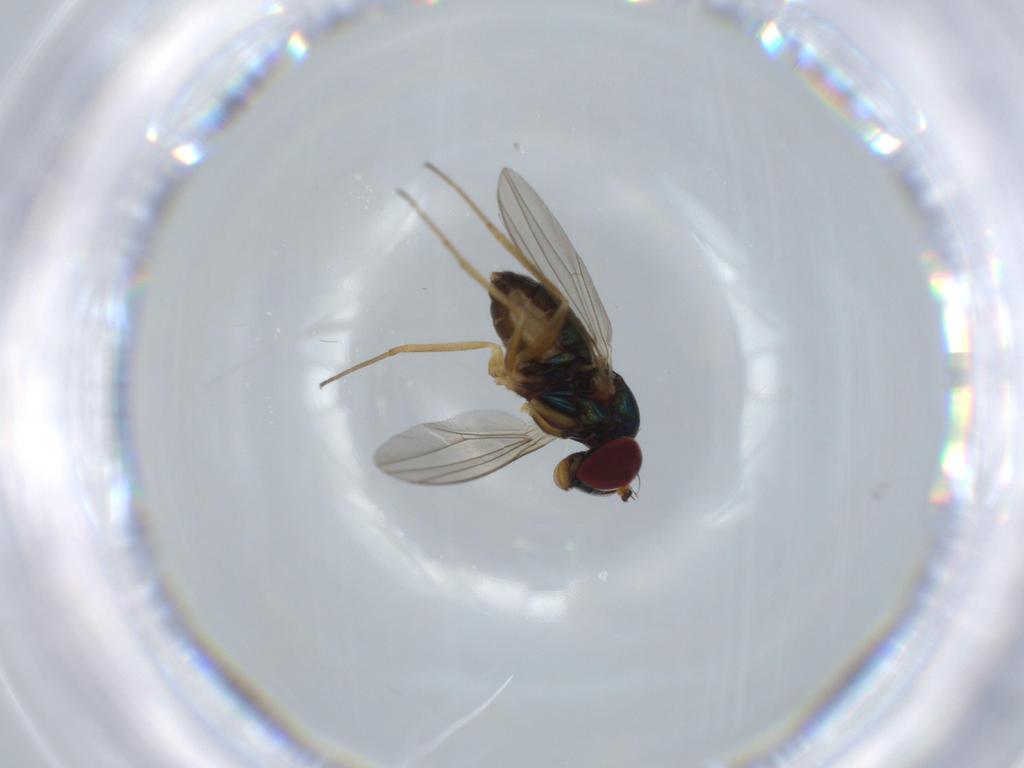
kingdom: Animalia
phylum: Arthropoda
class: Insecta
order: Diptera
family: Dolichopodidae
